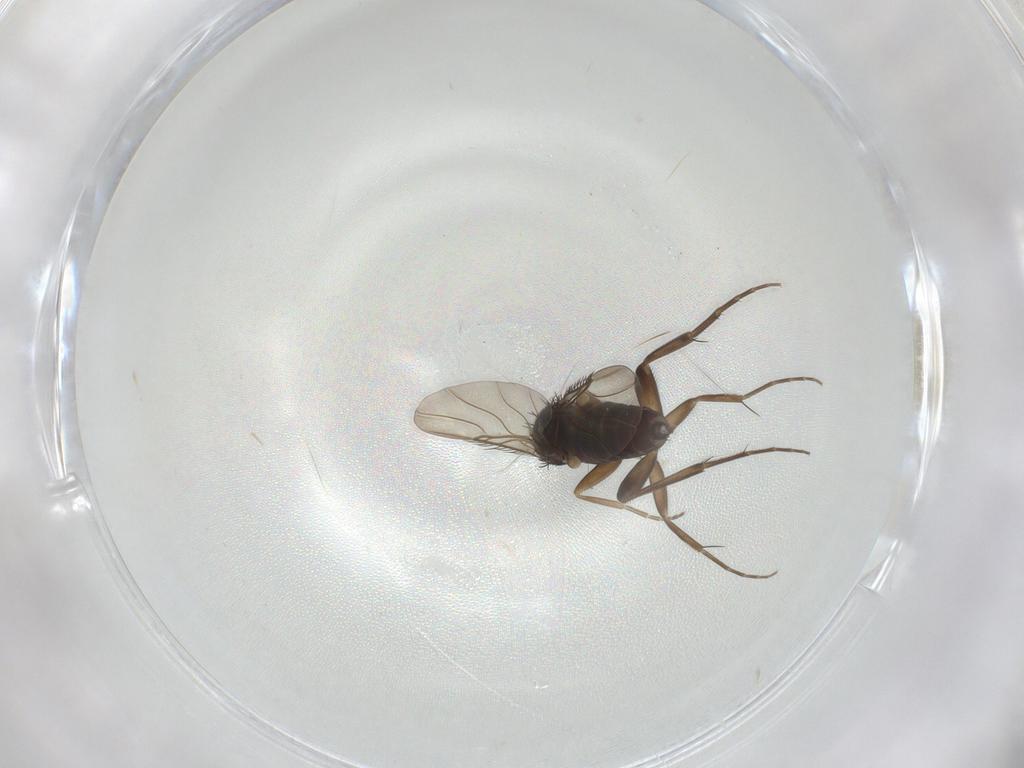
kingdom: Animalia
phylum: Arthropoda
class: Insecta
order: Diptera
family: Phoridae
